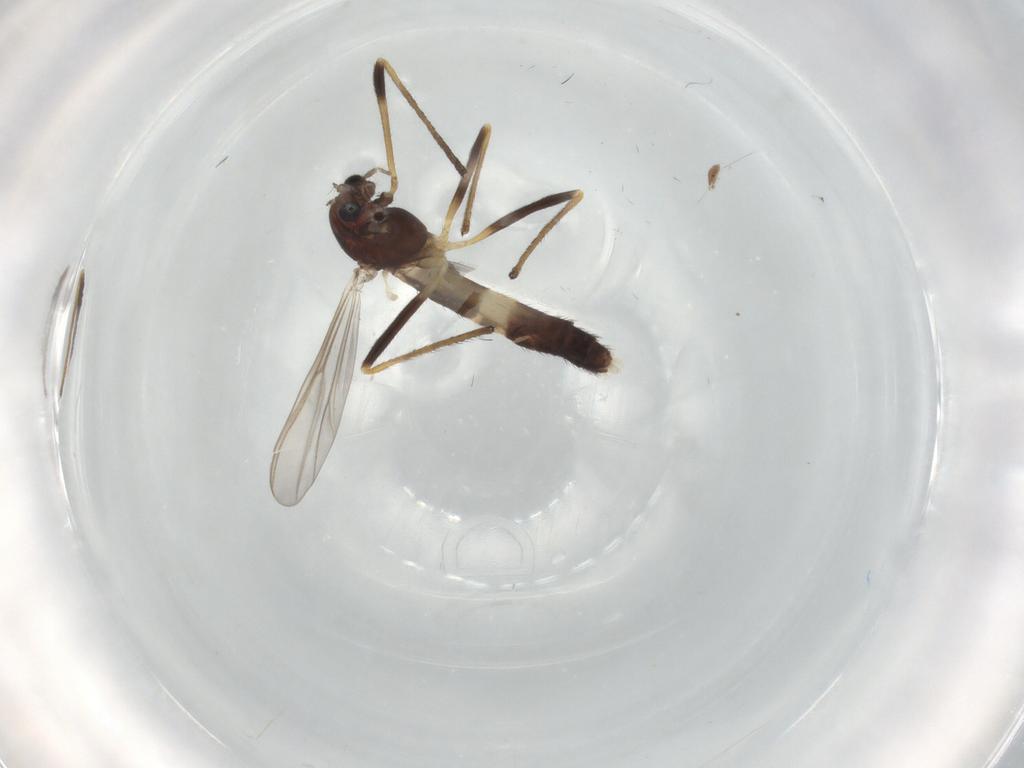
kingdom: Animalia
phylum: Arthropoda
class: Insecta
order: Diptera
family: Chironomidae
